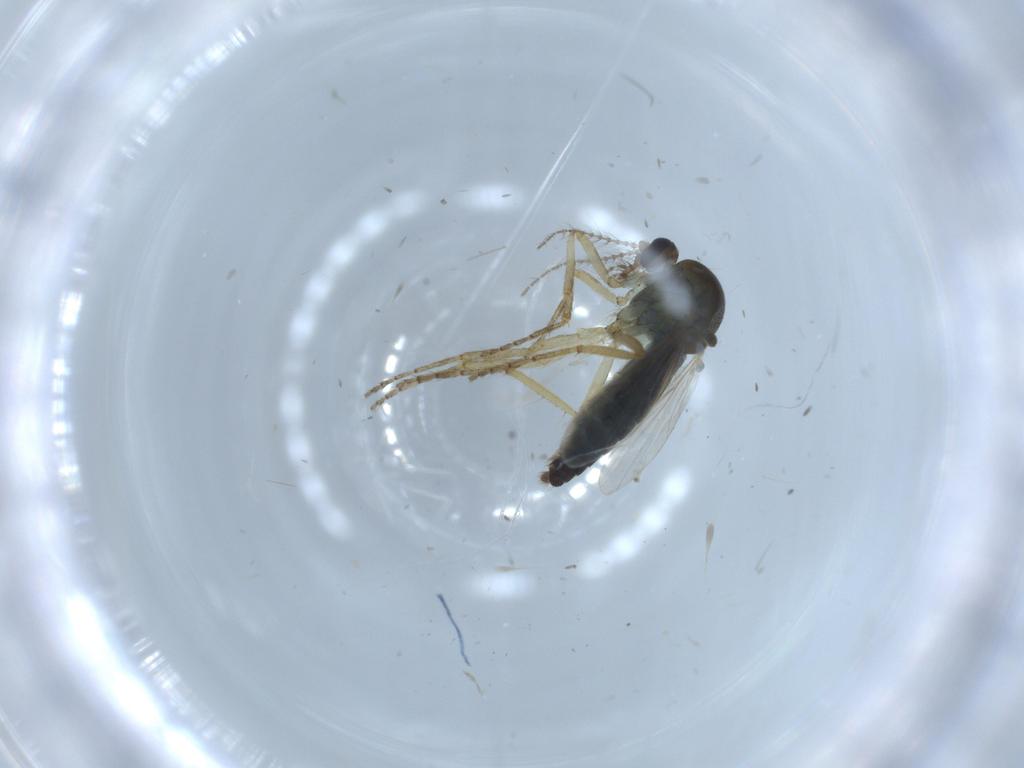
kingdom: Animalia
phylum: Arthropoda
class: Insecta
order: Diptera
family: Ceratopogonidae
